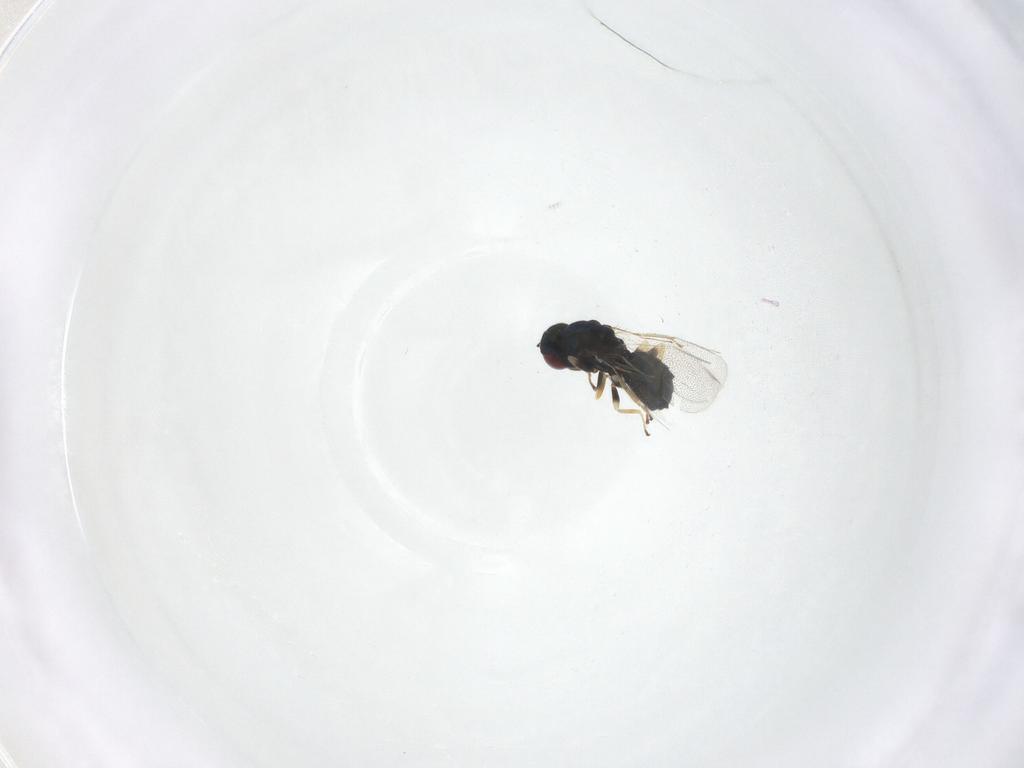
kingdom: Animalia
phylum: Arthropoda
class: Insecta
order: Hymenoptera
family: Eulophidae
